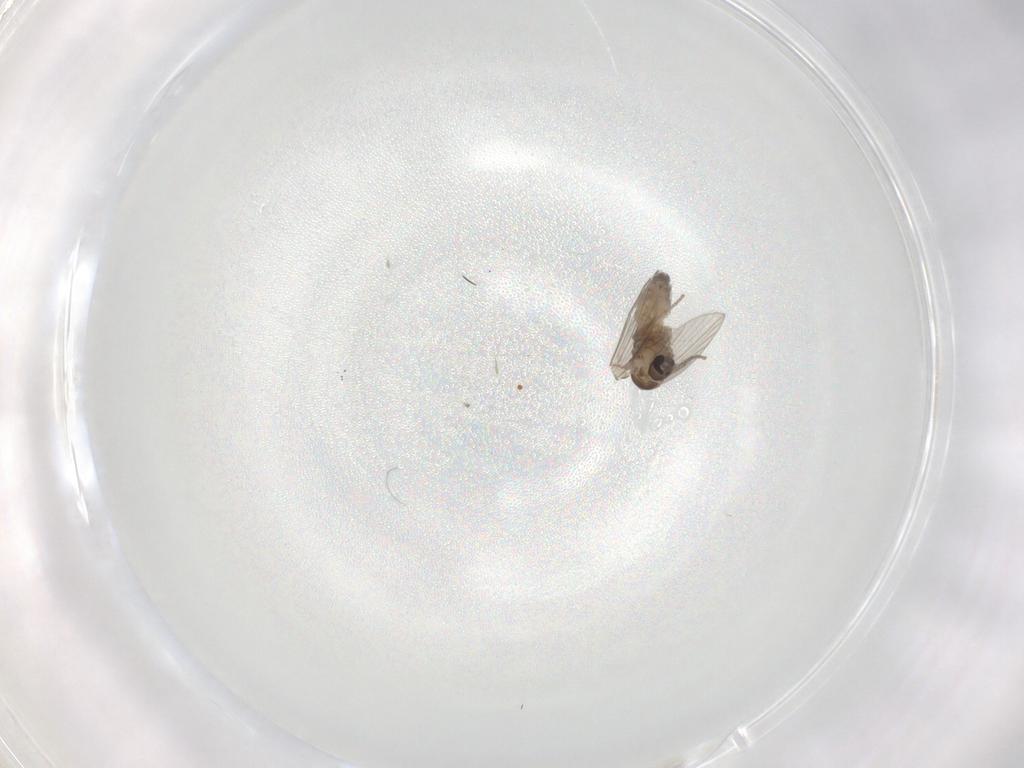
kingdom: Animalia
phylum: Arthropoda
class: Insecta
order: Diptera
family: Psychodidae
